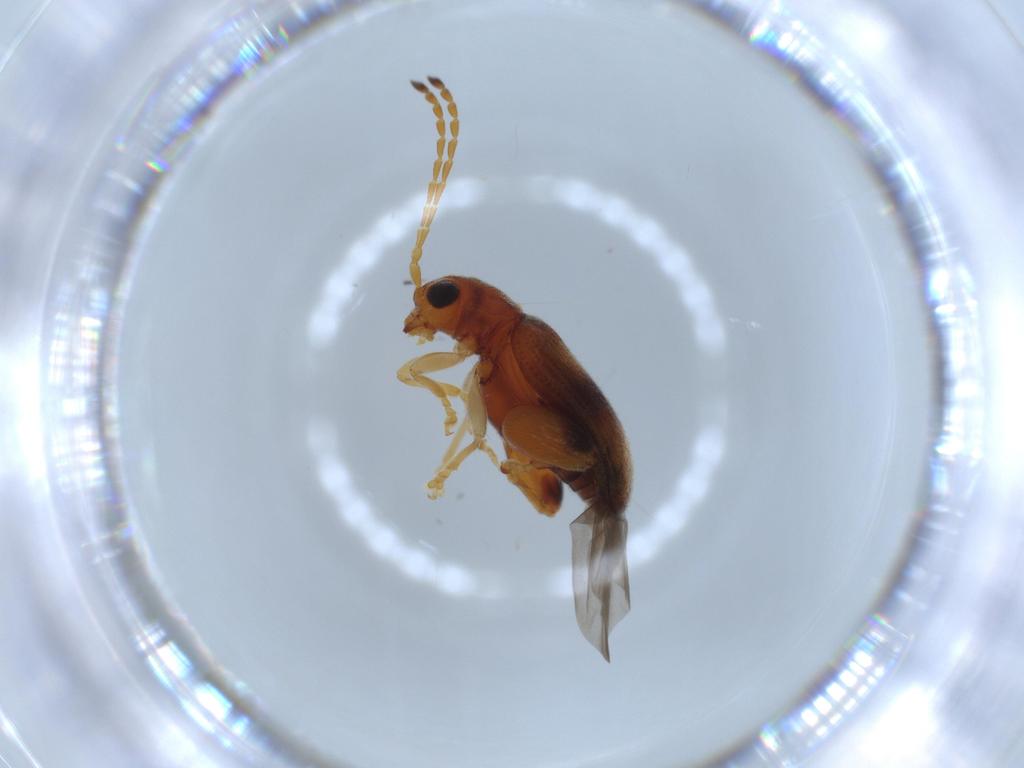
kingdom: Animalia
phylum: Arthropoda
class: Insecta
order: Coleoptera
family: Chrysomelidae
